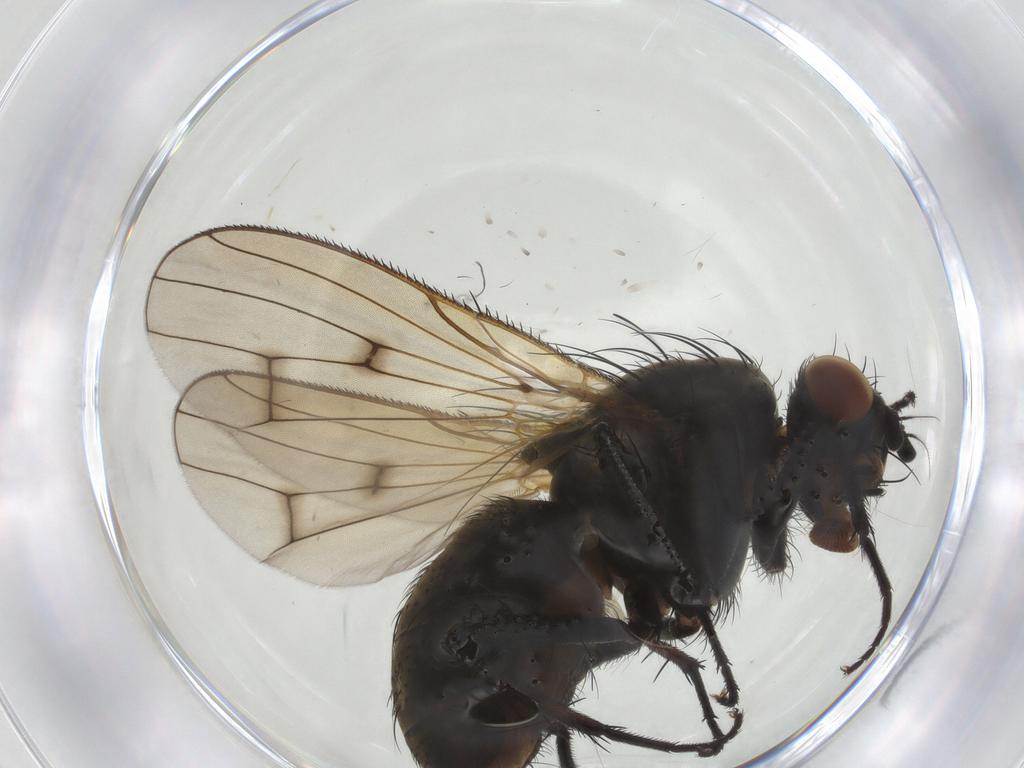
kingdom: Animalia
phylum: Arthropoda
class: Insecta
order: Diptera
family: Anthomyiidae
